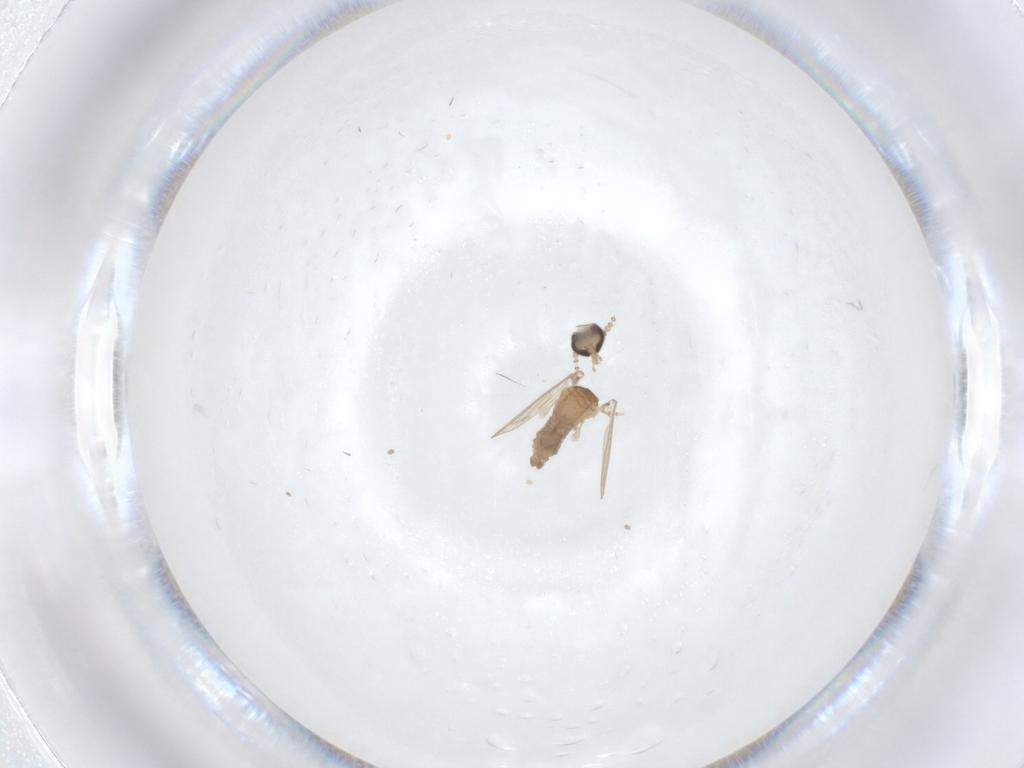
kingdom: Animalia
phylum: Arthropoda
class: Insecta
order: Diptera
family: Psychodidae
